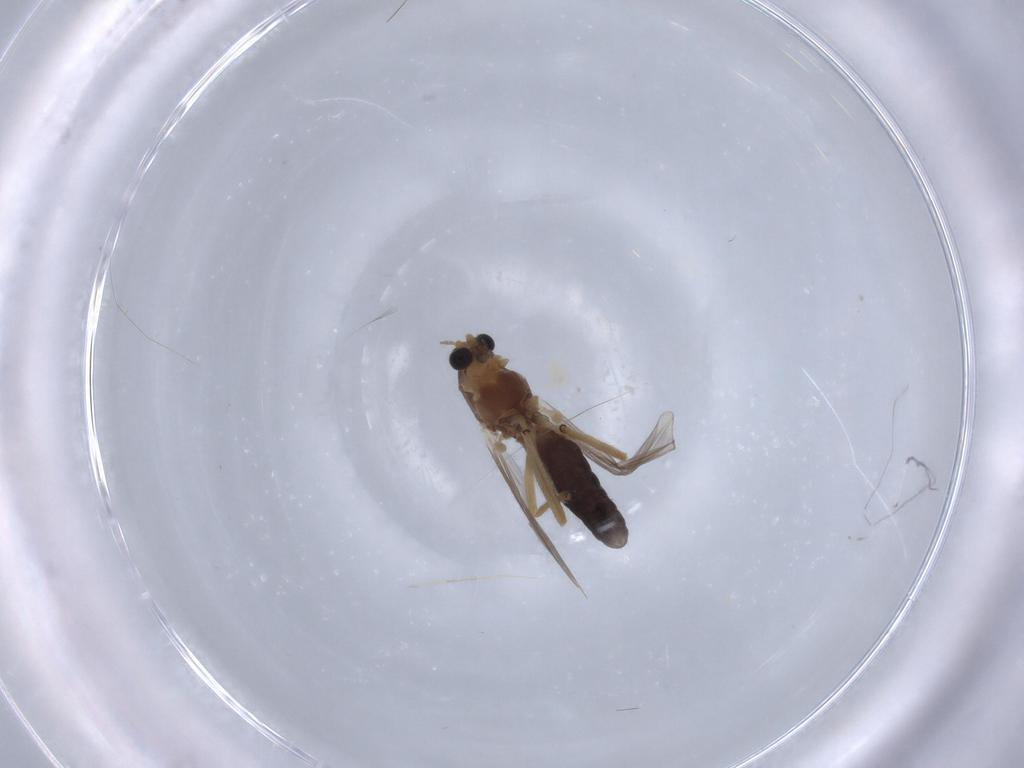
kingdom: Animalia
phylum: Arthropoda
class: Insecta
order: Diptera
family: Chironomidae
